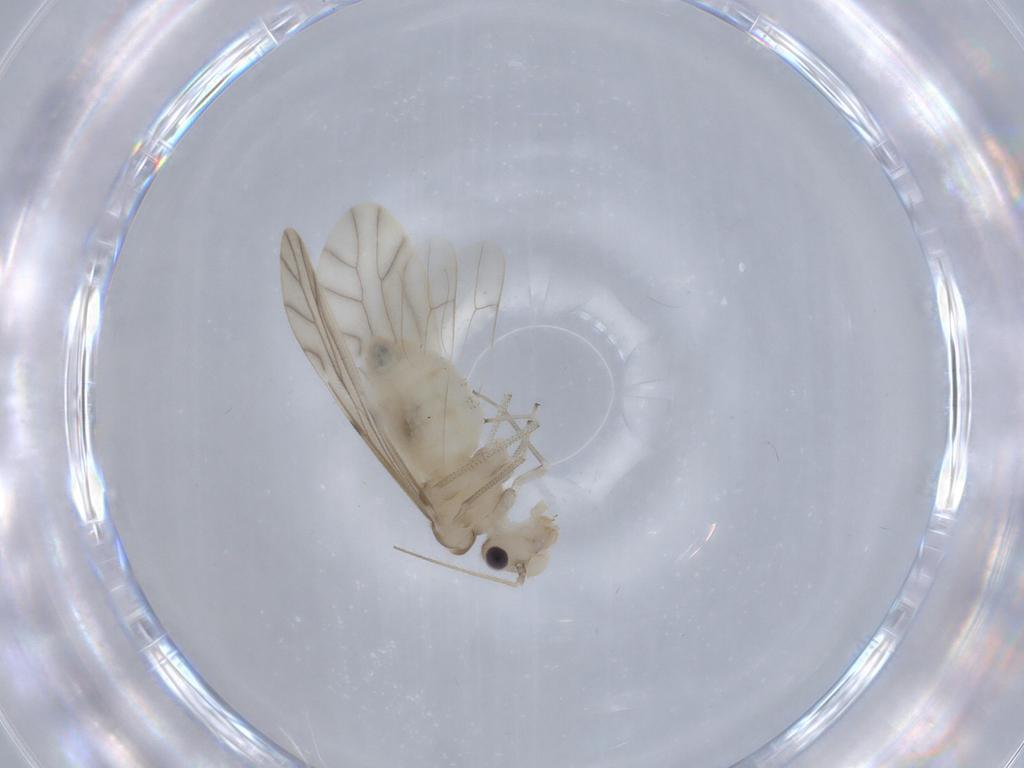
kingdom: Animalia
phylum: Arthropoda
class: Insecta
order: Psocodea
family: Caeciliusidae
